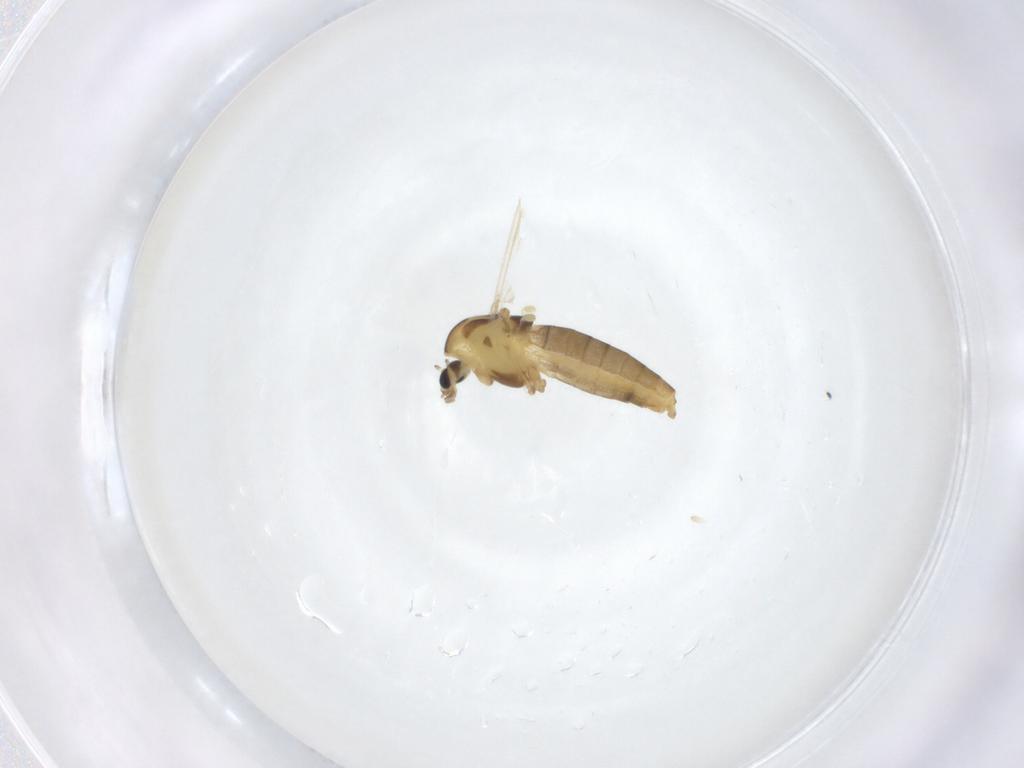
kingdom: Animalia
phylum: Arthropoda
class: Insecta
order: Diptera
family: Chironomidae
